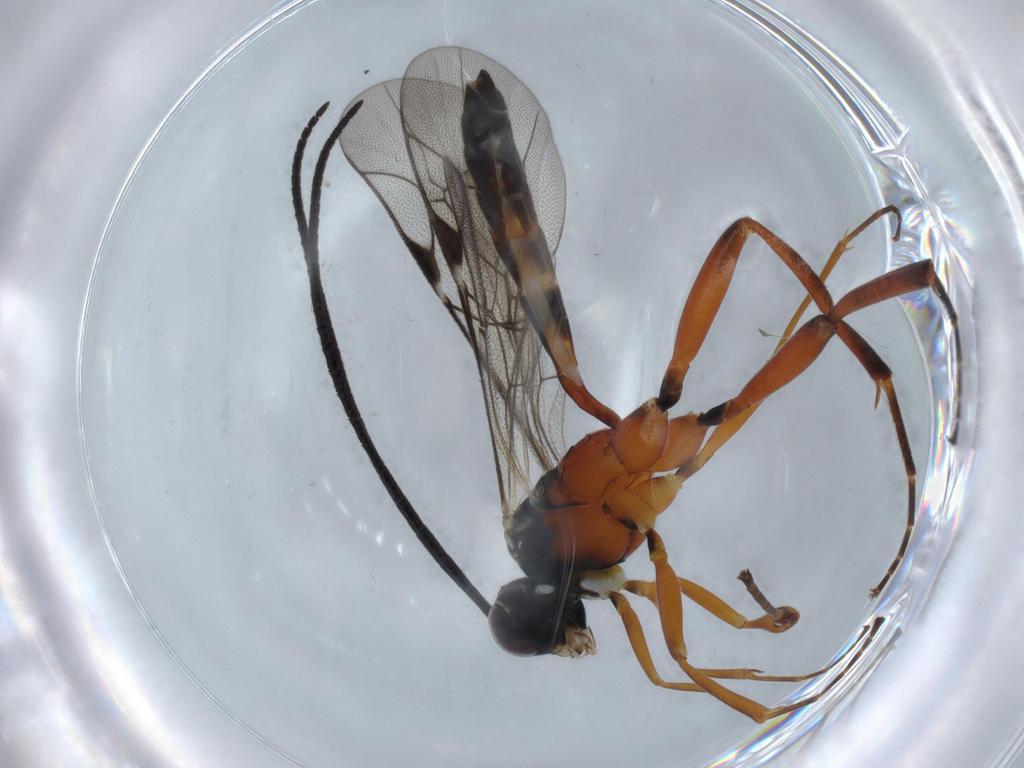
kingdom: Animalia
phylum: Arthropoda
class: Insecta
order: Hymenoptera
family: Ichneumonidae
